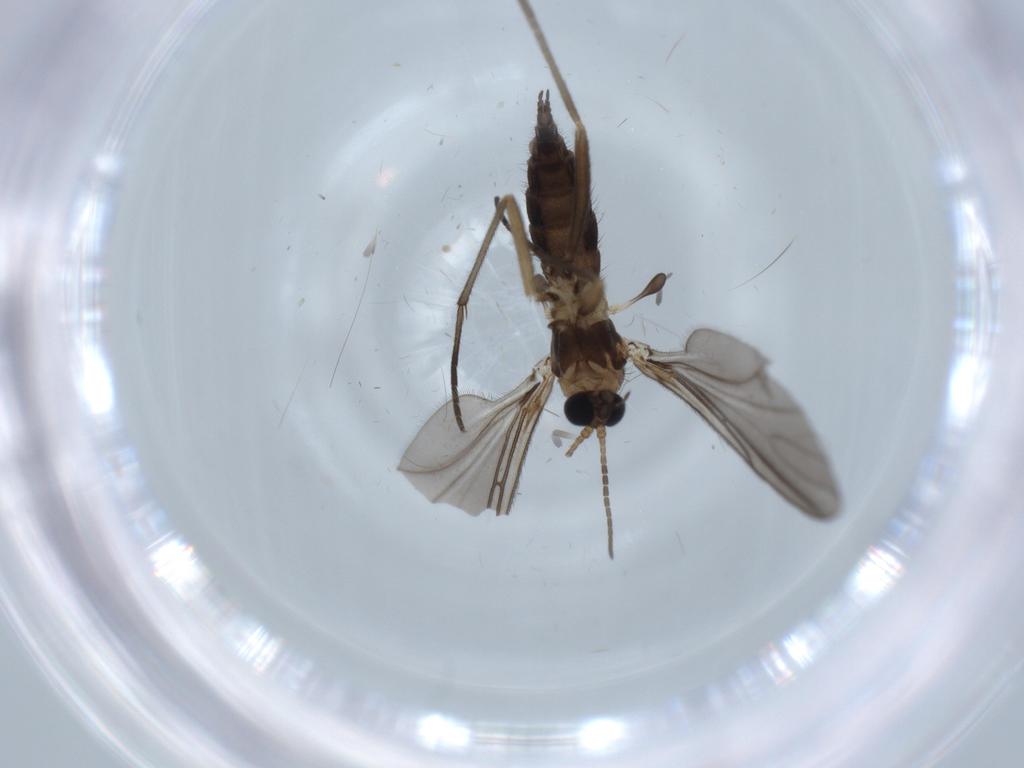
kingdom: Animalia
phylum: Arthropoda
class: Insecta
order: Diptera
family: Sciaridae
